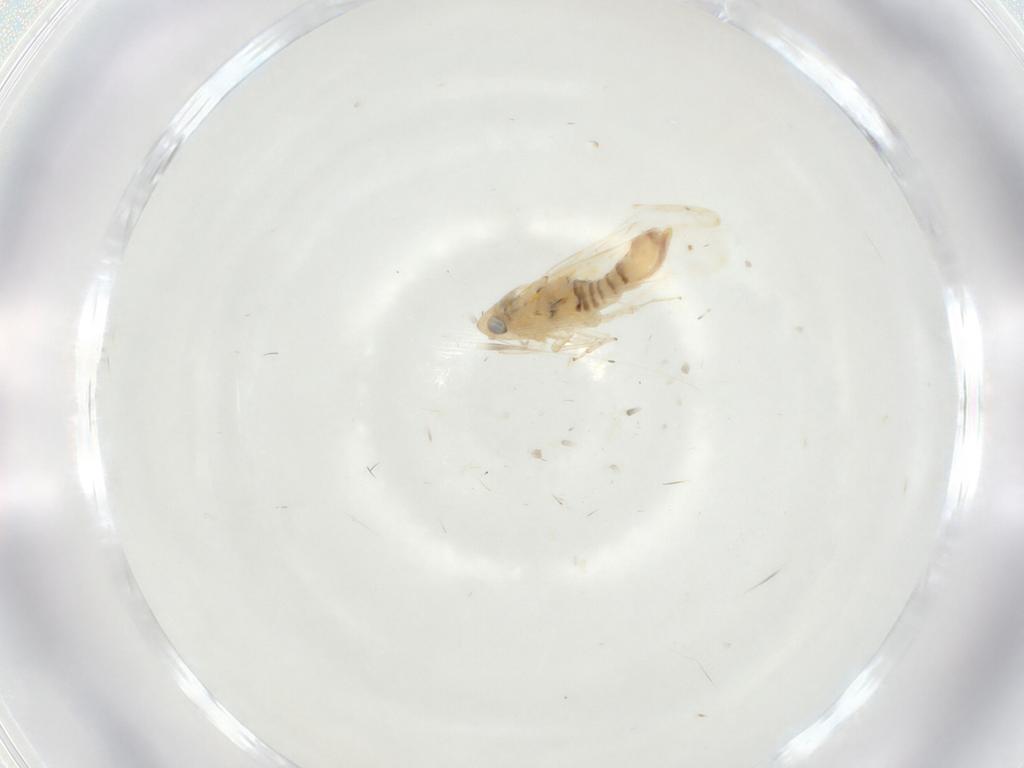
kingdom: Animalia
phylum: Arthropoda
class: Insecta
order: Hemiptera
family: Cicadellidae
